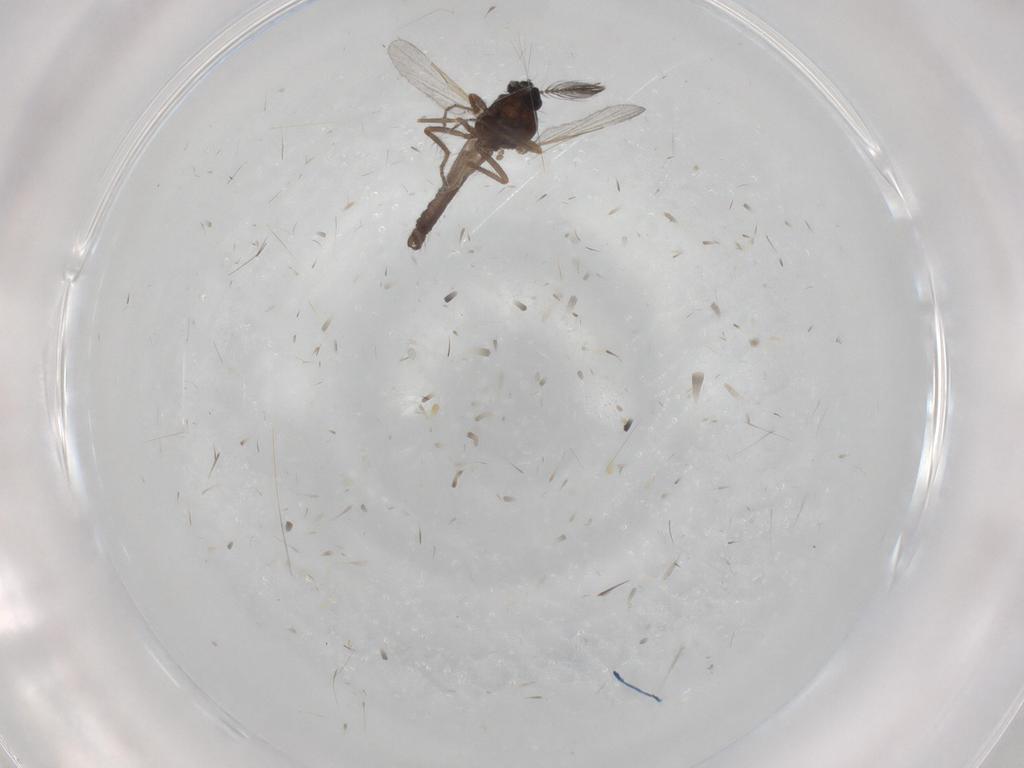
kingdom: Animalia
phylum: Arthropoda
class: Insecta
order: Diptera
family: Ceratopogonidae
